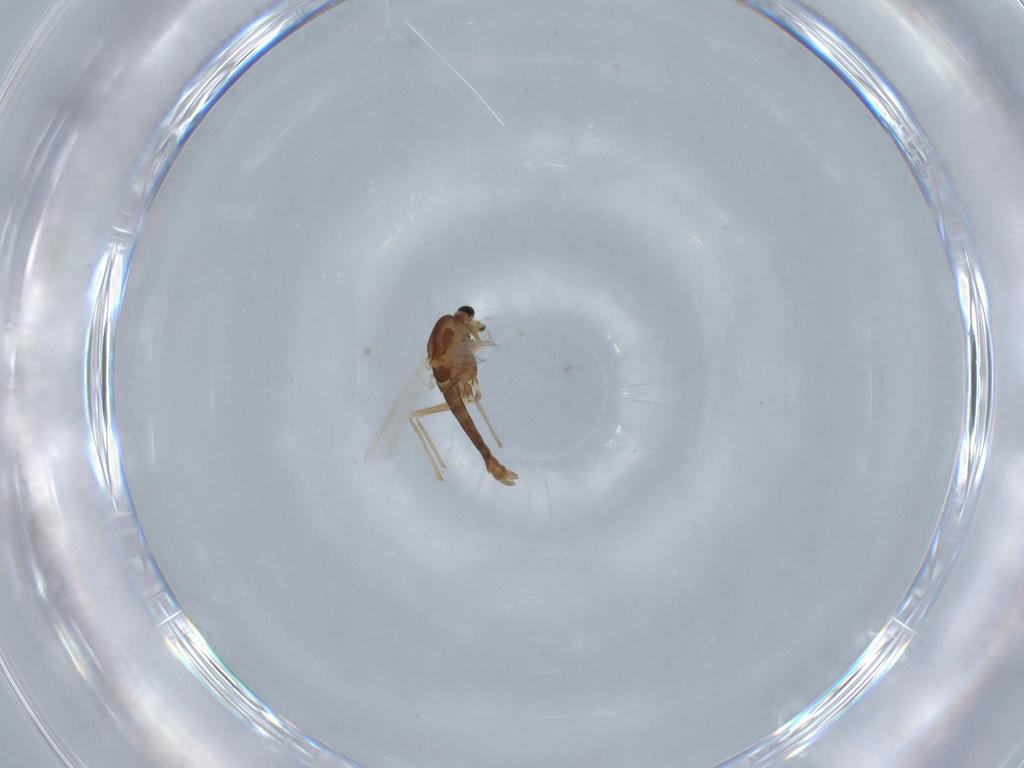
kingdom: Animalia
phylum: Arthropoda
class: Insecta
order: Diptera
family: Chironomidae
